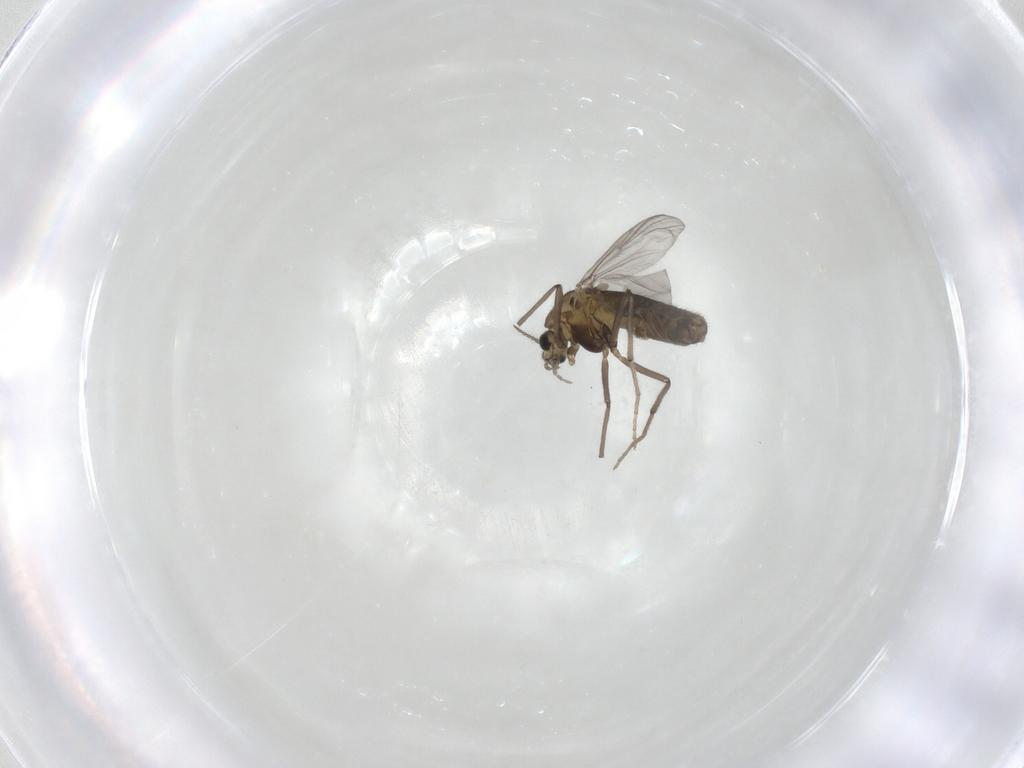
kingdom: Animalia
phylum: Arthropoda
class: Insecta
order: Diptera
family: Chironomidae
